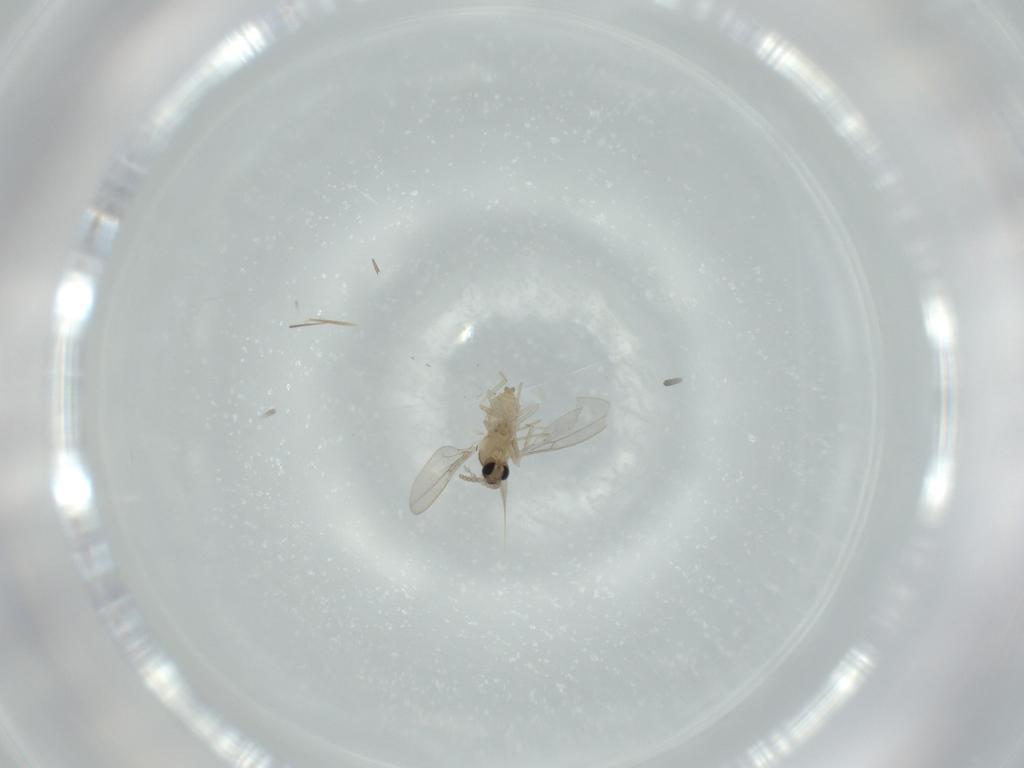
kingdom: Animalia
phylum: Arthropoda
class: Insecta
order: Diptera
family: Cecidomyiidae
